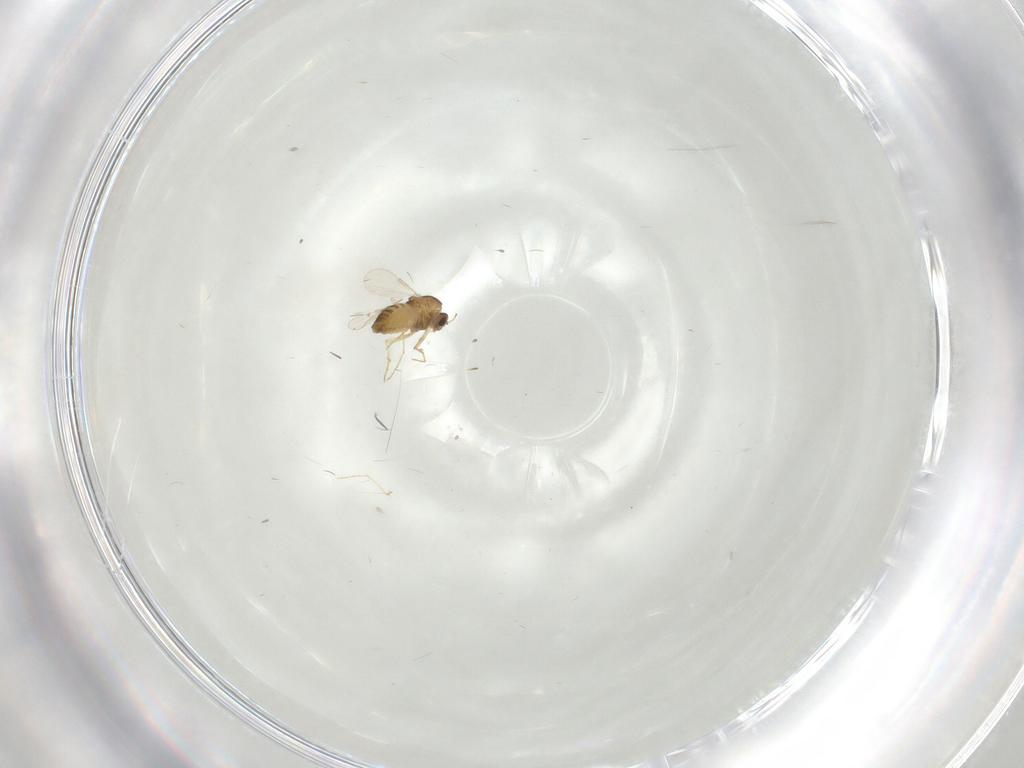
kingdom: Animalia
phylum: Arthropoda
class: Insecta
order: Diptera
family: Chironomidae
